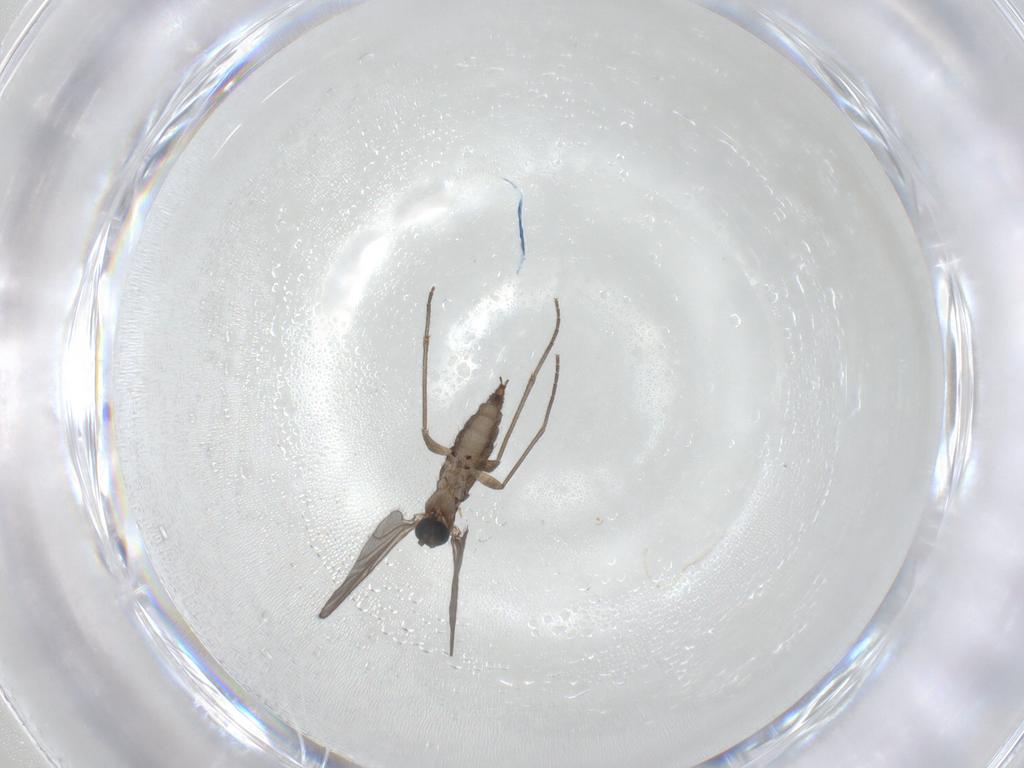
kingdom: Animalia
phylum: Arthropoda
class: Insecta
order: Diptera
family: Sciaridae
